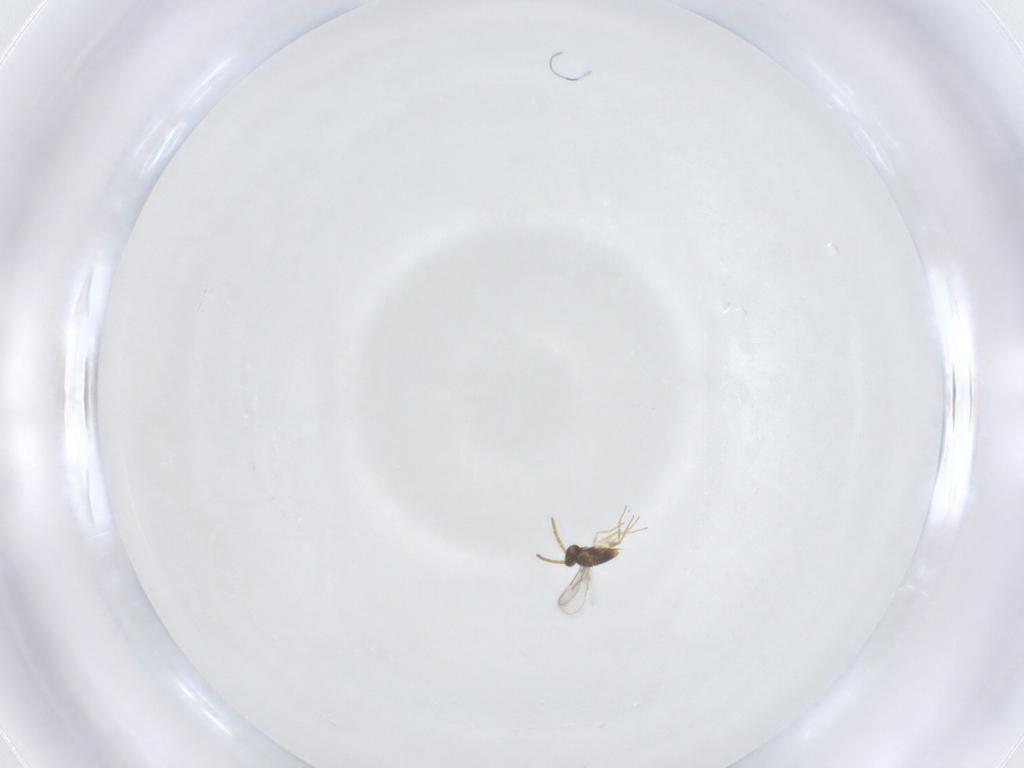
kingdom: Animalia
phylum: Arthropoda
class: Insecta
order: Hymenoptera
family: Aphelinidae
